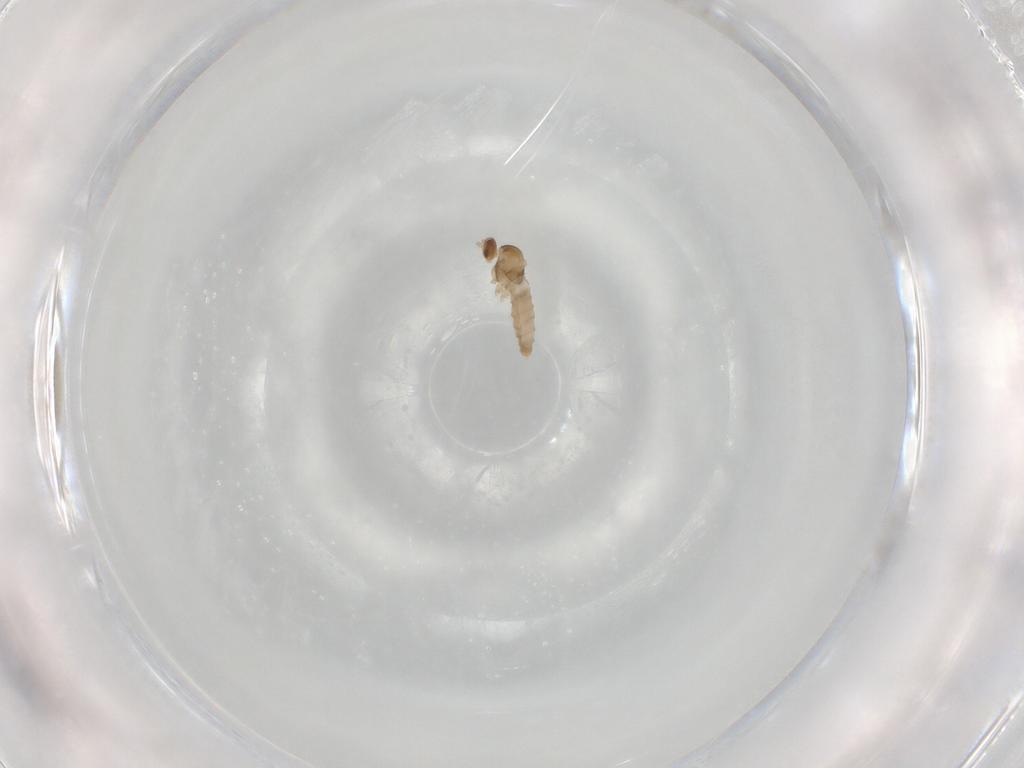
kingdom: Animalia
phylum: Arthropoda
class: Insecta
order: Diptera
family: Cecidomyiidae
